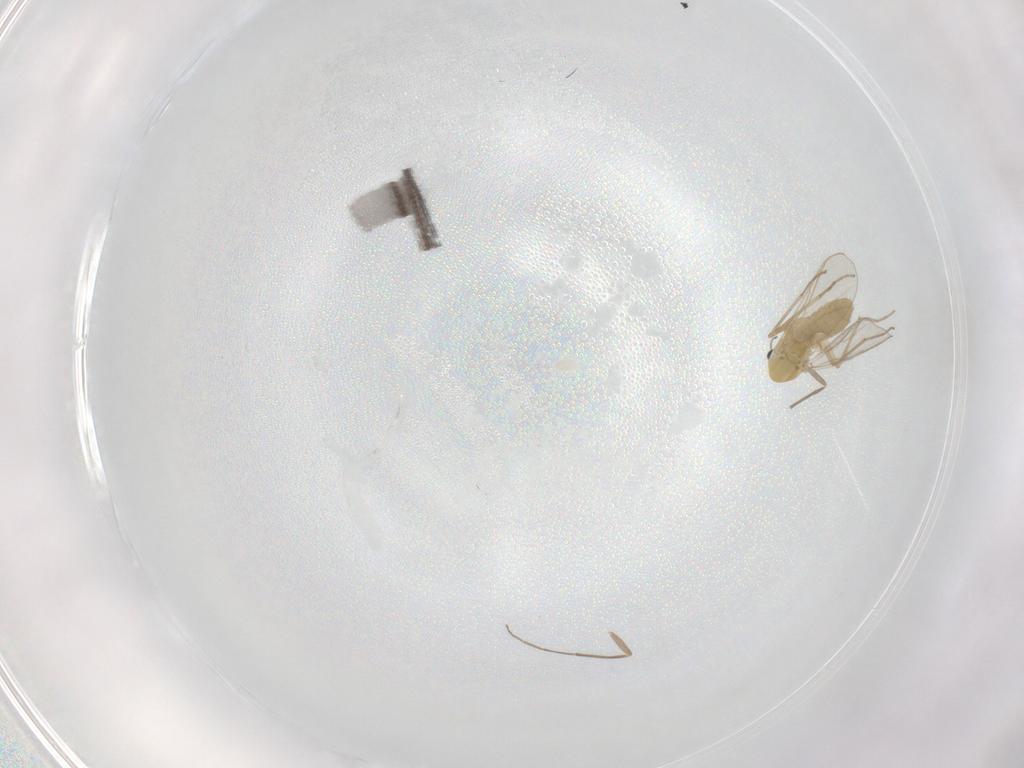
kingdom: Animalia
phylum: Arthropoda
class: Insecta
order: Diptera
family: Chironomidae
